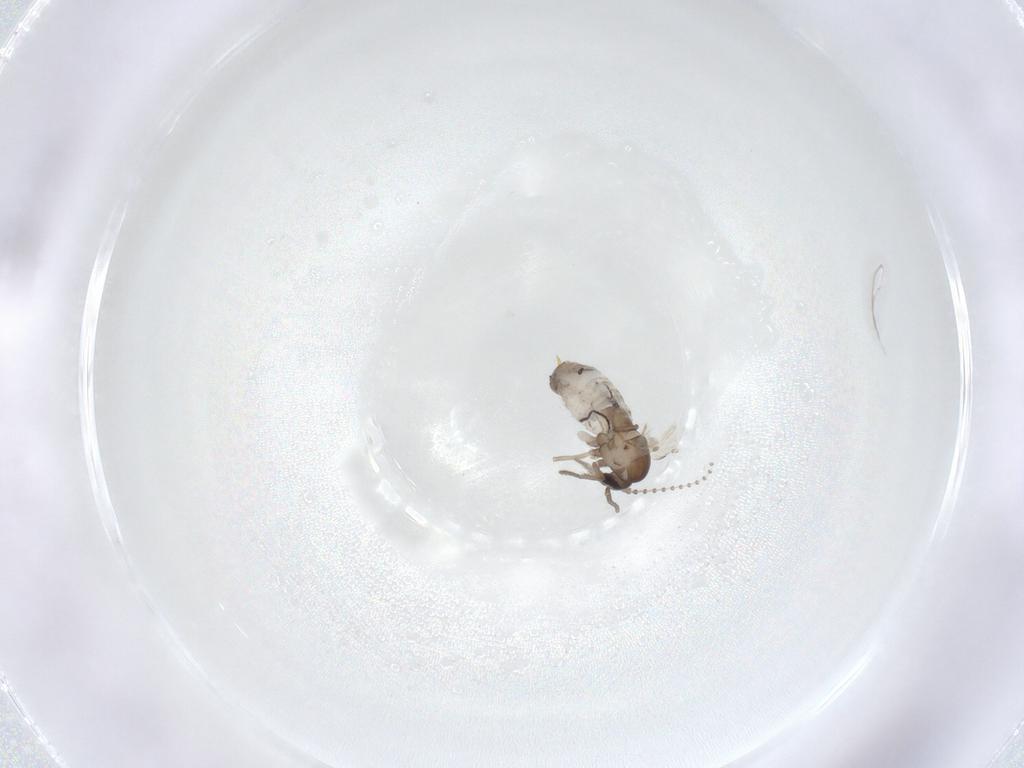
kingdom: Animalia
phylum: Arthropoda
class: Insecta
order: Diptera
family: Psychodidae
